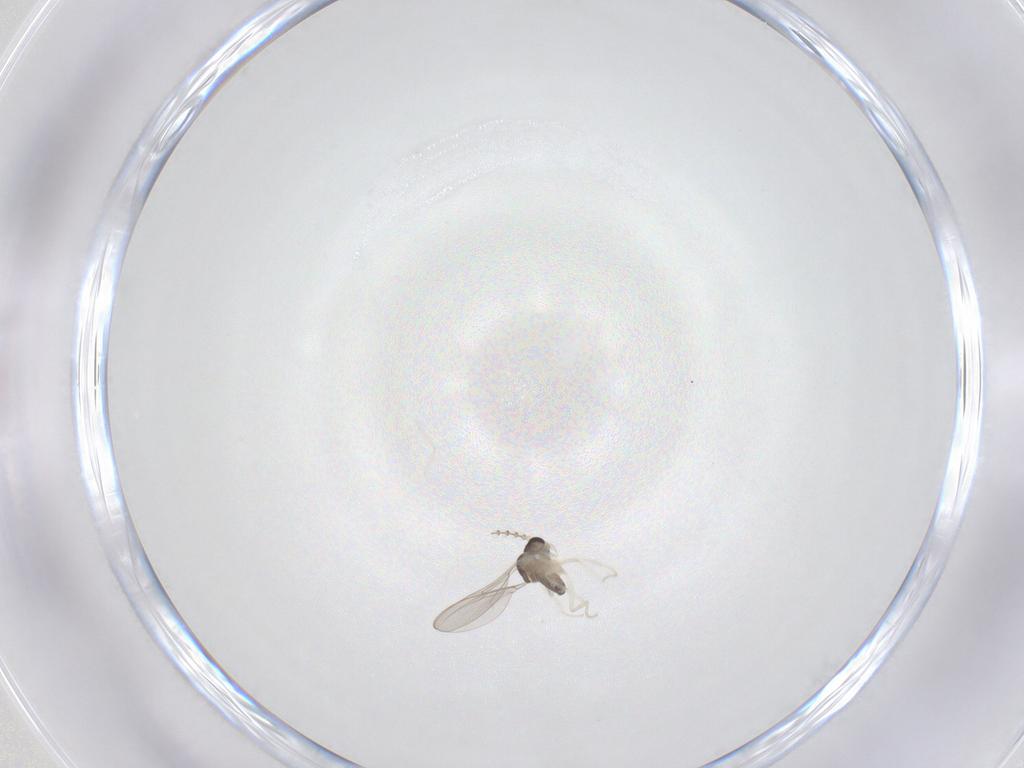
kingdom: Animalia
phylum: Arthropoda
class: Insecta
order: Diptera
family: Cecidomyiidae
